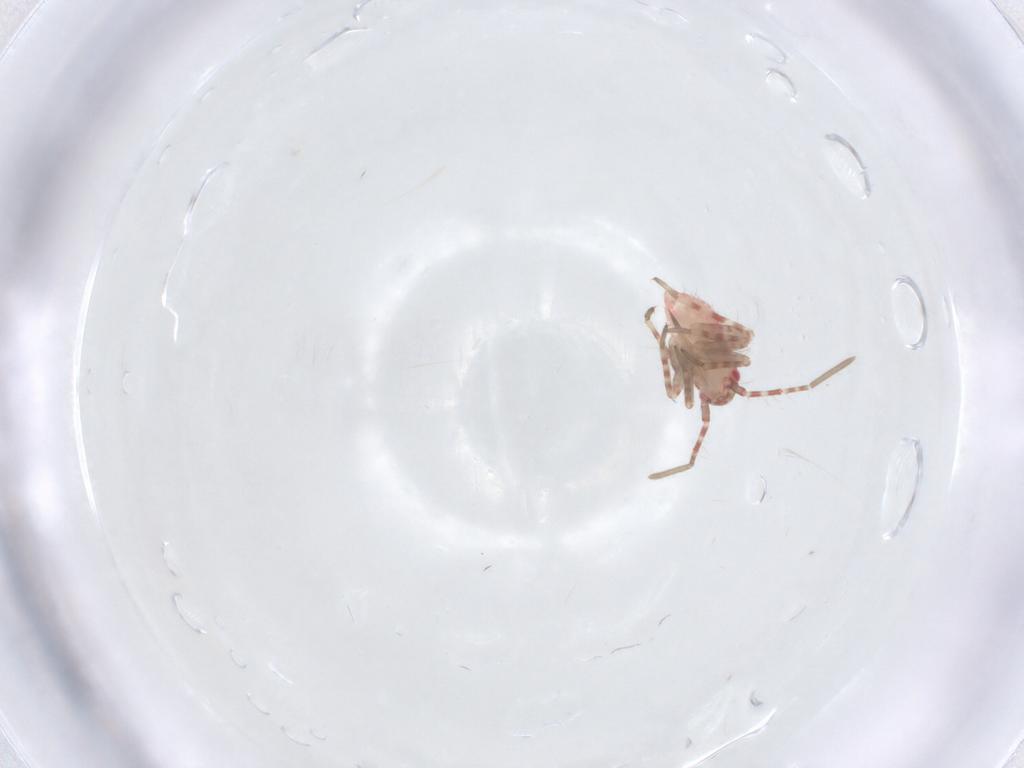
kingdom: Animalia
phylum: Arthropoda
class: Insecta
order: Hemiptera
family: Miridae
